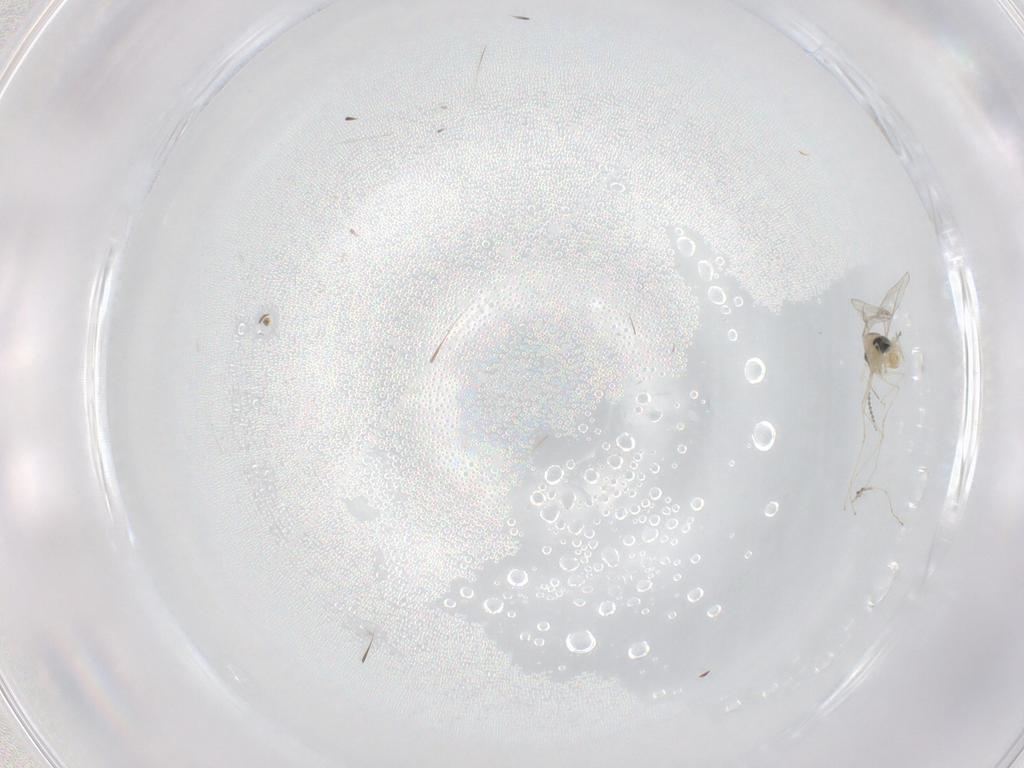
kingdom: Animalia
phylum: Arthropoda
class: Insecta
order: Diptera
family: Cecidomyiidae
